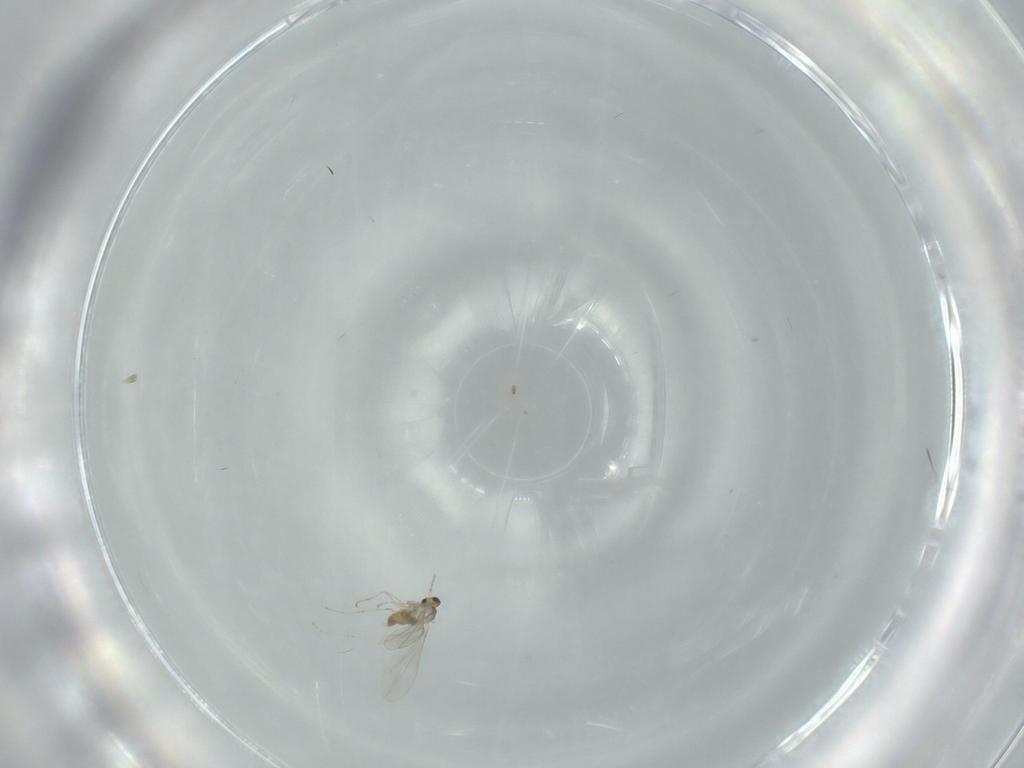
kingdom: Animalia
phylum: Arthropoda
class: Insecta
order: Diptera
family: Cecidomyiidae
